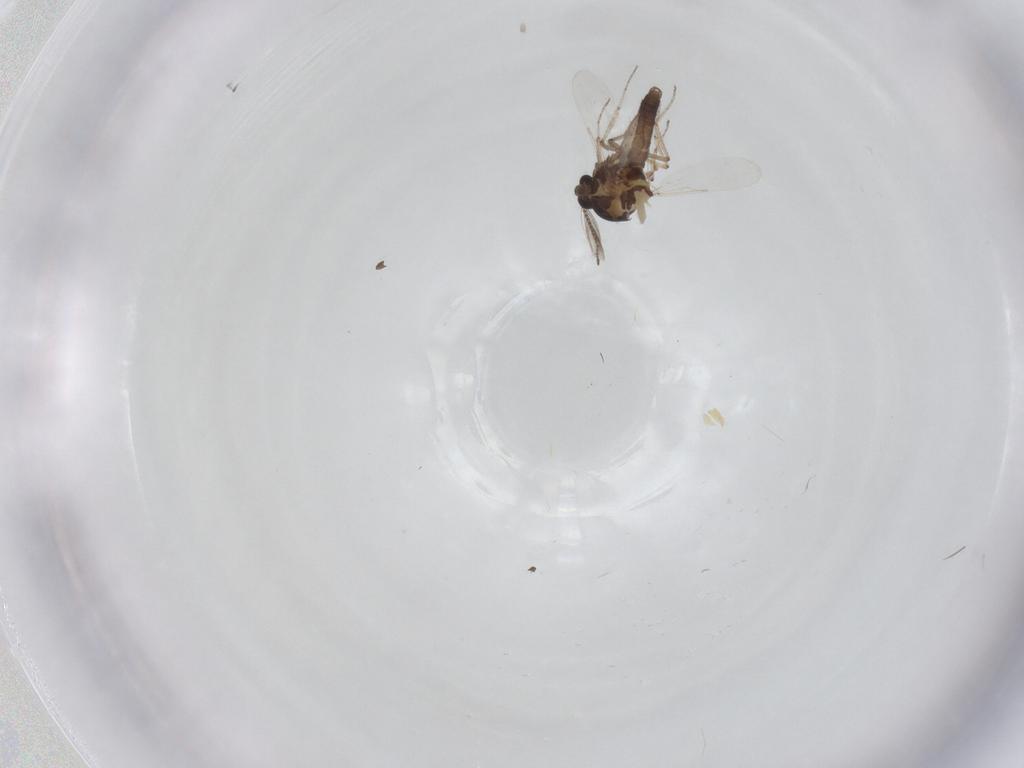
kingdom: Animalia
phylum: Arthropoda
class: Insecta
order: Diptera
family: Ceratopogonidae
